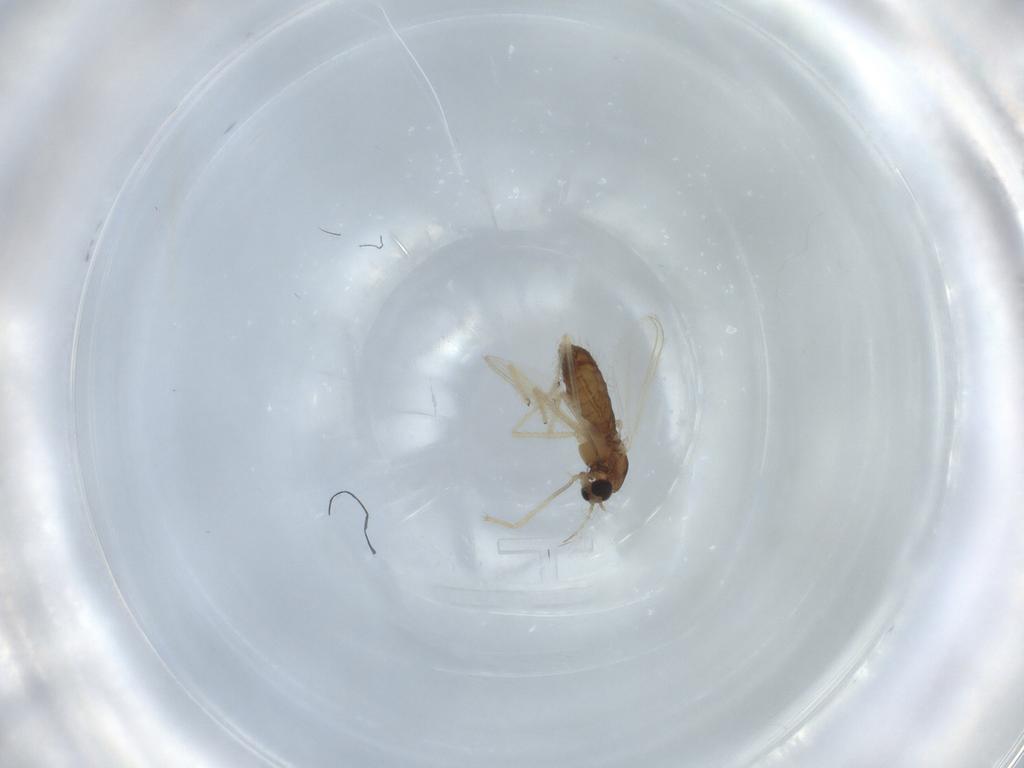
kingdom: Animalia
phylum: Arthropoda
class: Insecta
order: Diptera
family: Chironomidae
